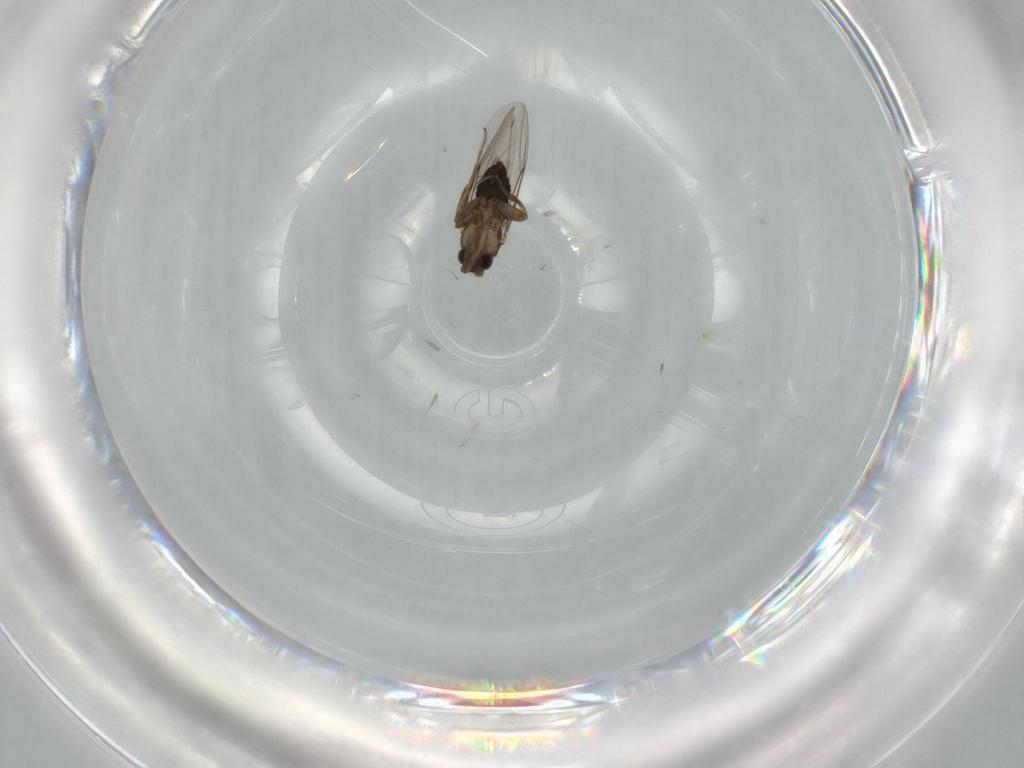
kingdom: Animalia
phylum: Arthropoda
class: Insecta
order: Diptera
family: Phoridae
